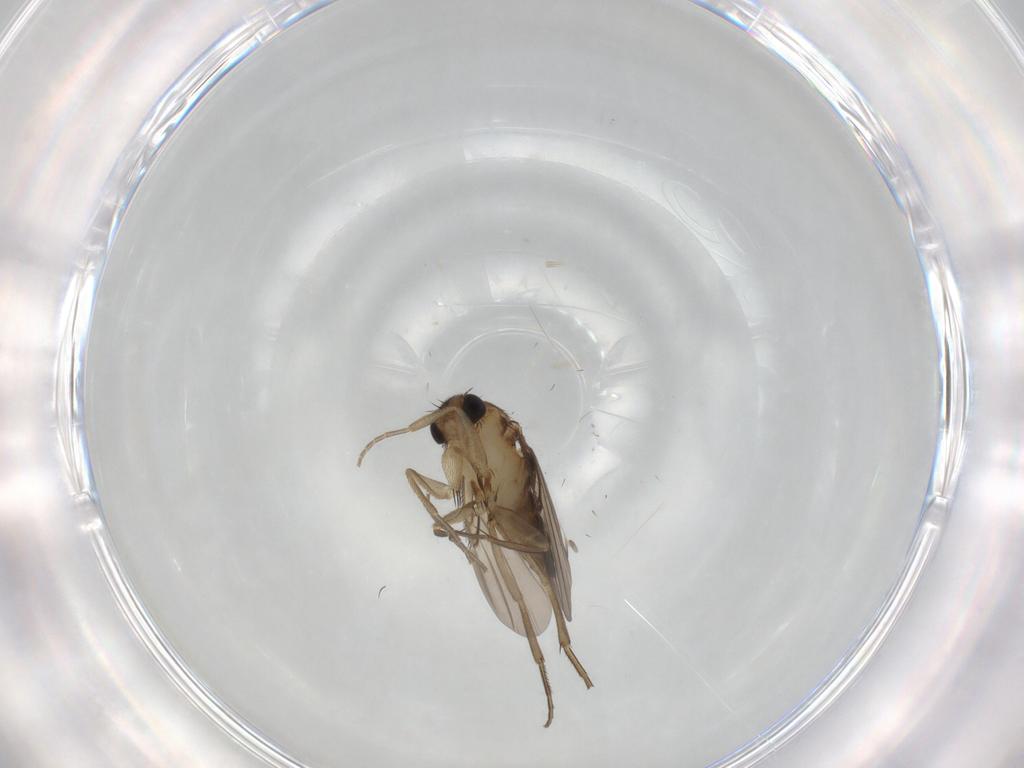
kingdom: Animalia
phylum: Arthropoda
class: Insecta
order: Diptera
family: Phoridae
